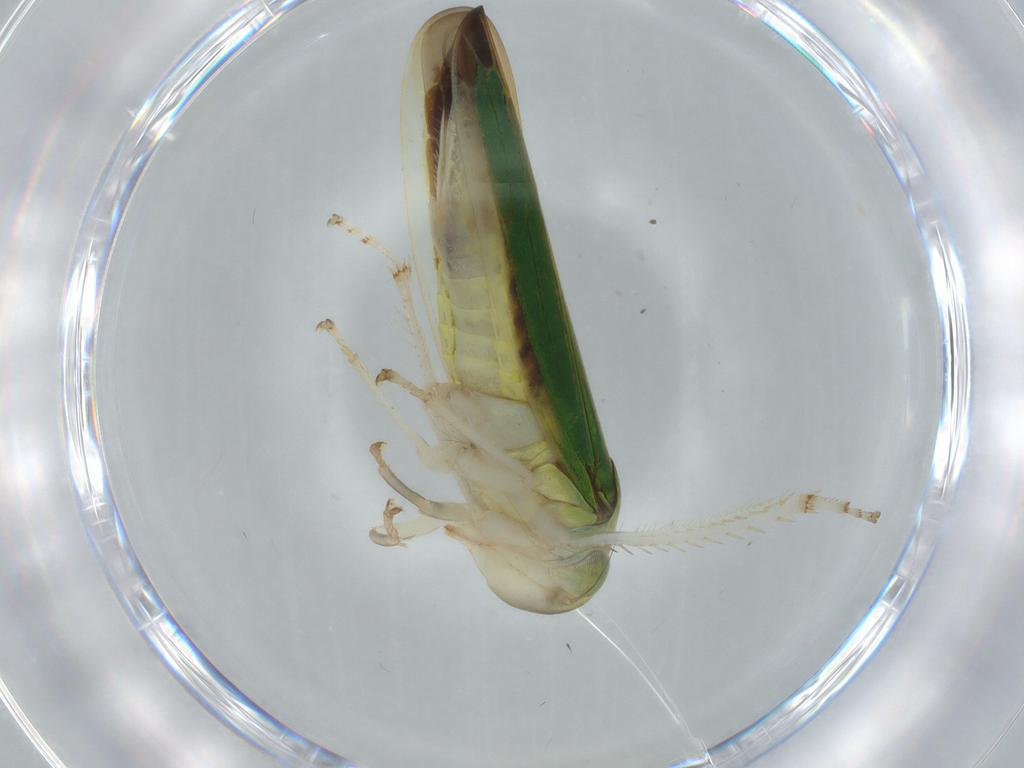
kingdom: Animalia
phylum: Arthropoda
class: Insecta
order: Hemiptera
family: Cicadellidae
